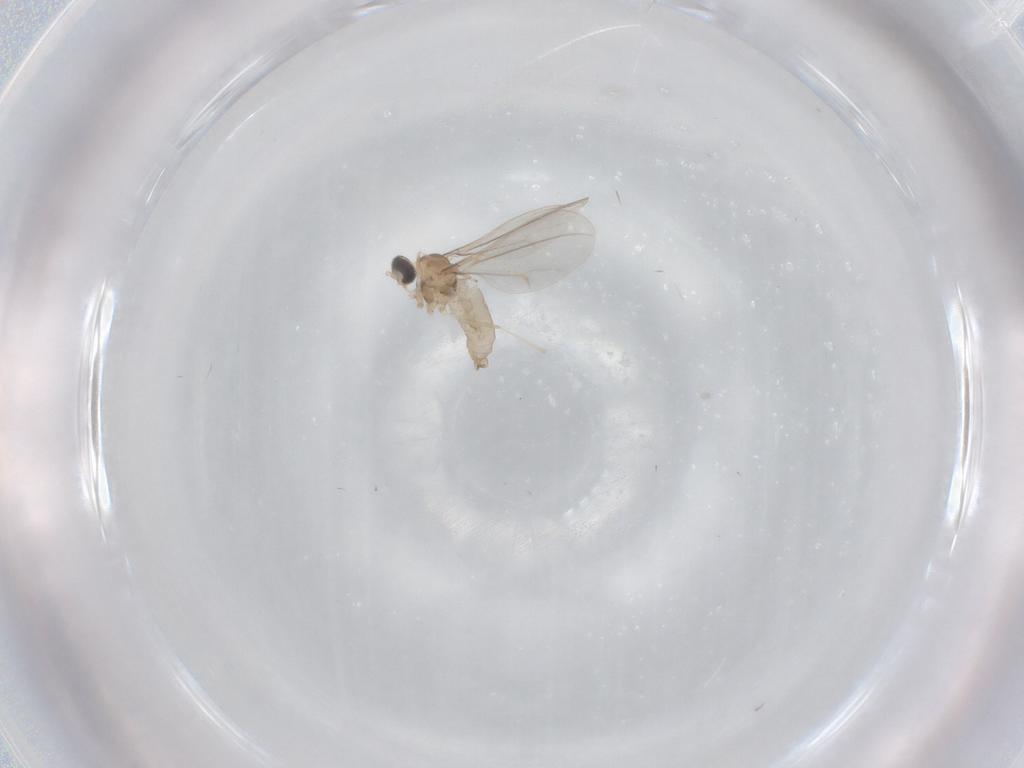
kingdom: Animalia
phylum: Arthropoda
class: Insecta
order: Diptera
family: Cecidomyiidae
